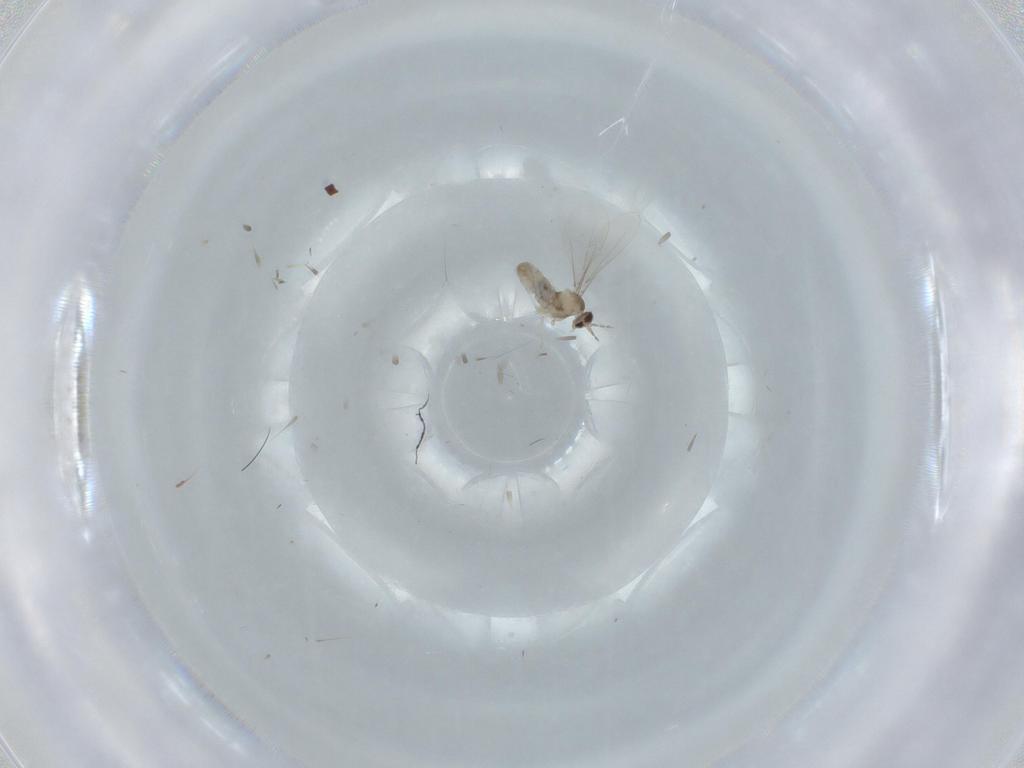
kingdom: Animalia
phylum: Arthropoda
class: Insecta
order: Diptera
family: Cecidomyiidae
